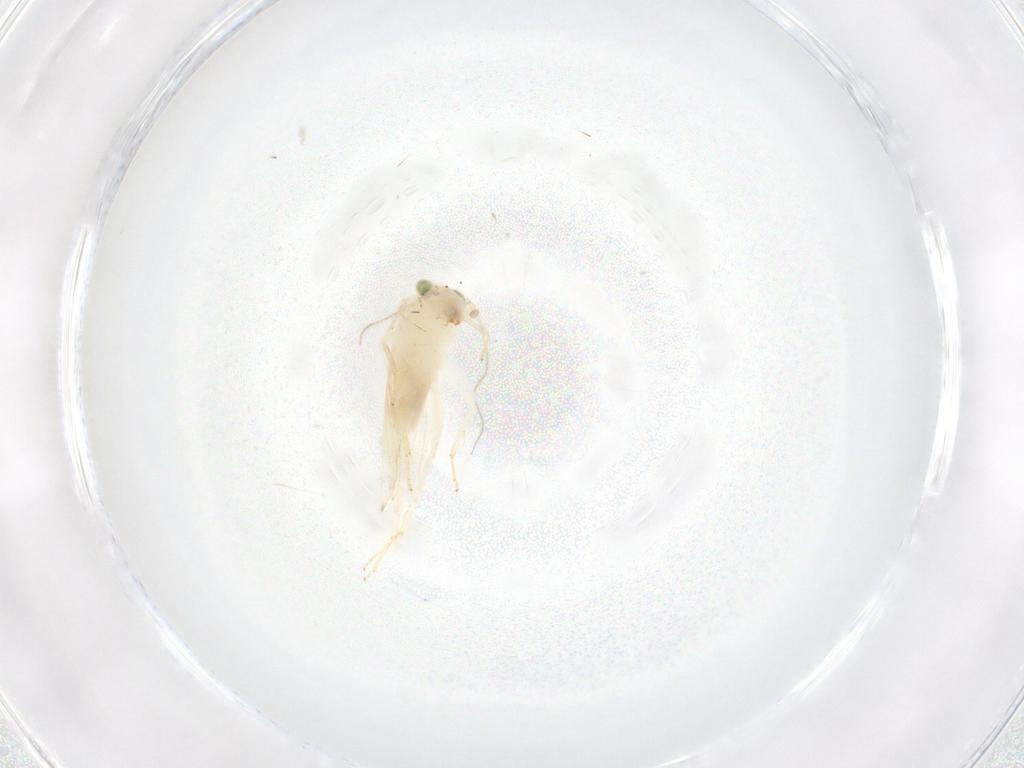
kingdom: Animalia
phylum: Arthropoda
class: Insecta
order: Psocodea
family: Lepidopsocidae
